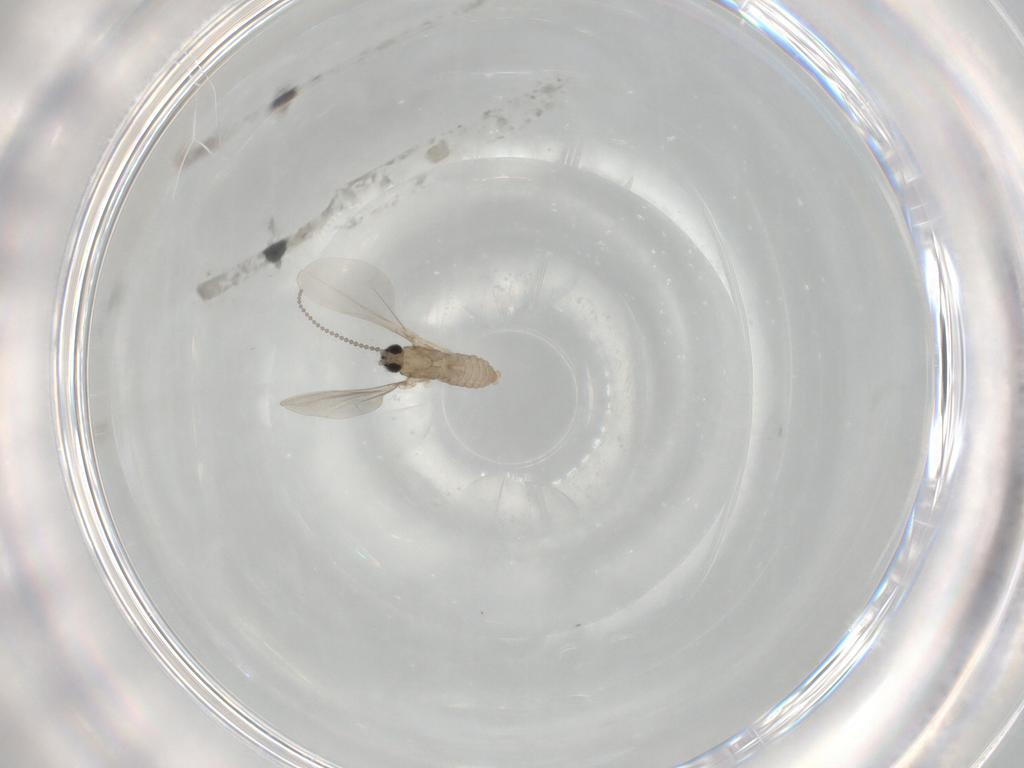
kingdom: Animalia
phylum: Arthropoda
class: Insecta
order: Diptera
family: Cecidomyiidae
